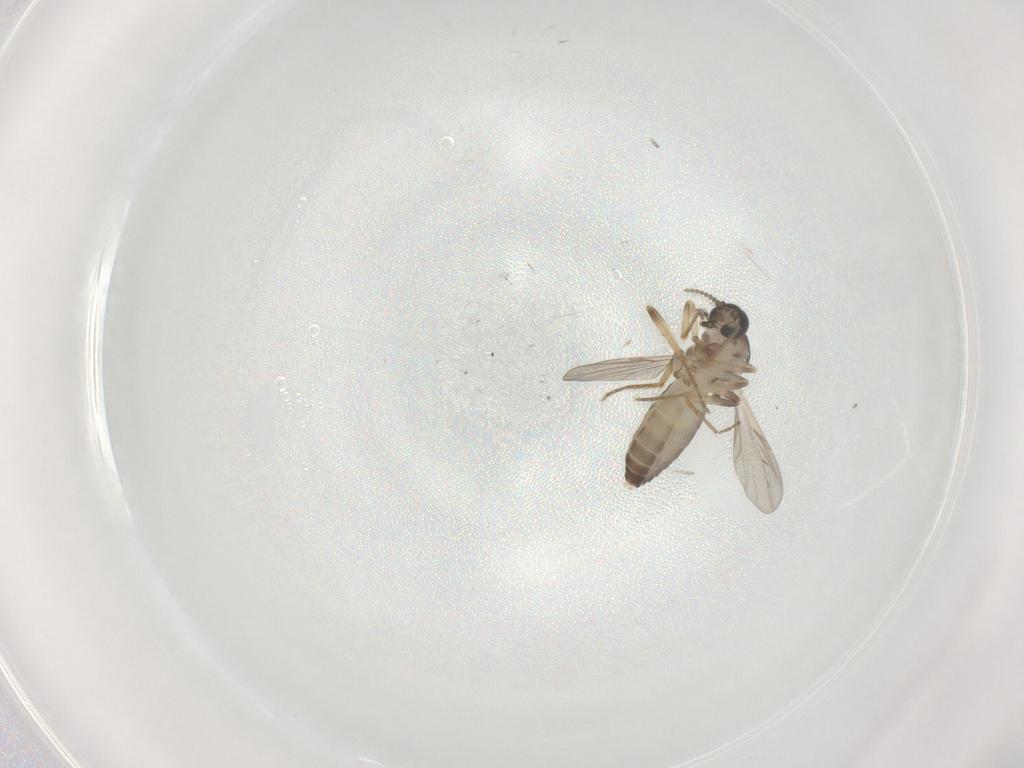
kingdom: Animalia
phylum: Arthropoda
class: Insecta
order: Diptera
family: Ceratopogonidae
